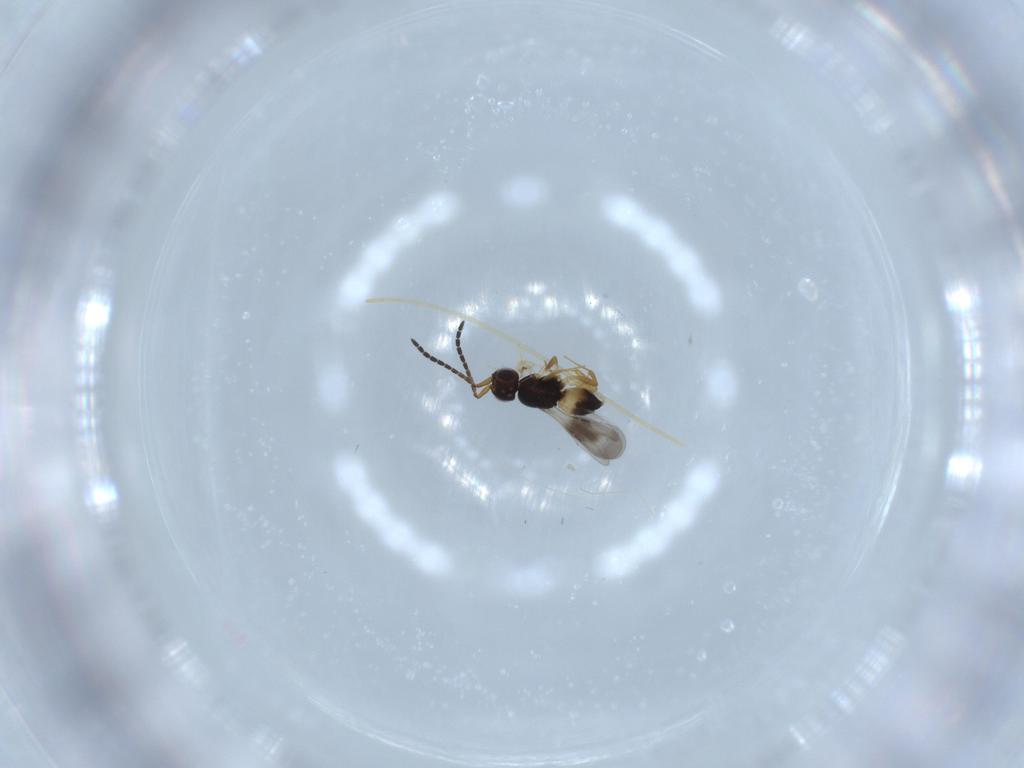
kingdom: Animalia
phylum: Arthropoda
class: Insecta
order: Hymenoptera
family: Scelionidae
